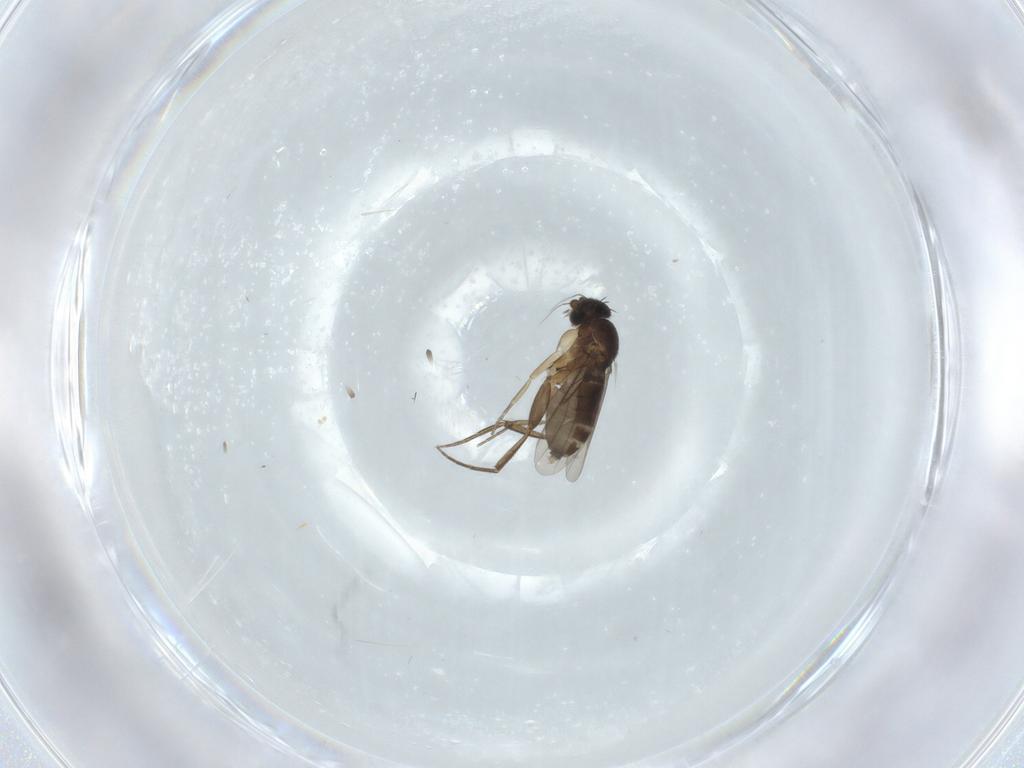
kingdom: Animalia
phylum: Arthropoda
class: Insecta
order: Diptera
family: Phoridae
